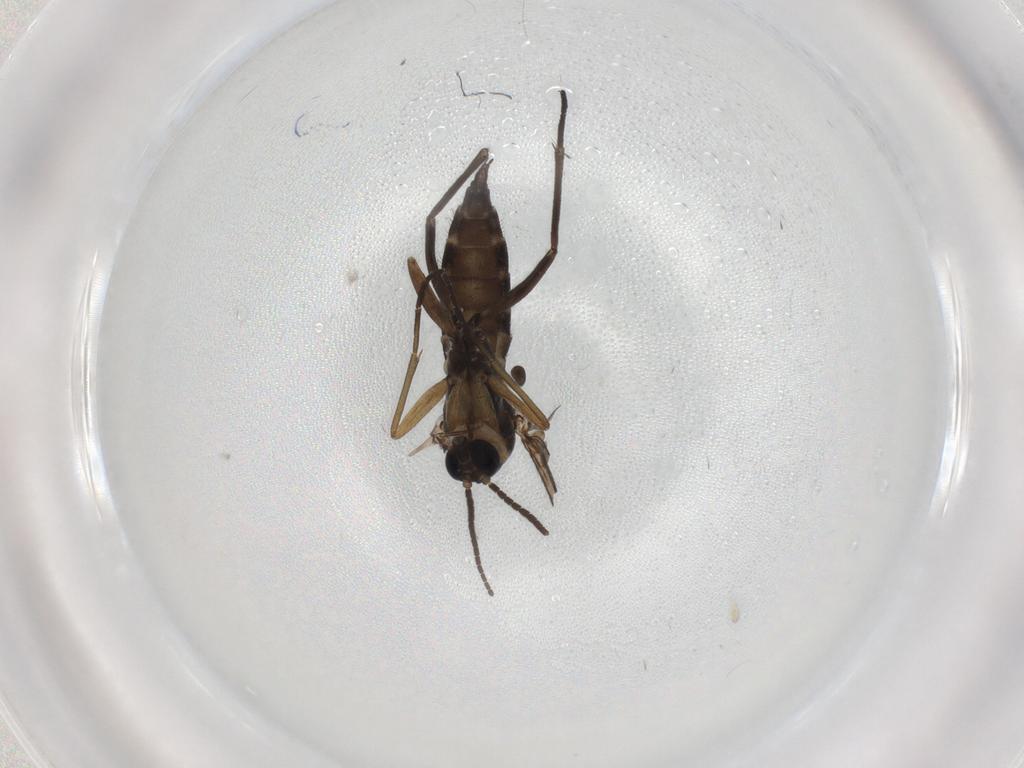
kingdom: Animalia
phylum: Arthropoda
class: Insecta
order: Diptera
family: Sciaridae
